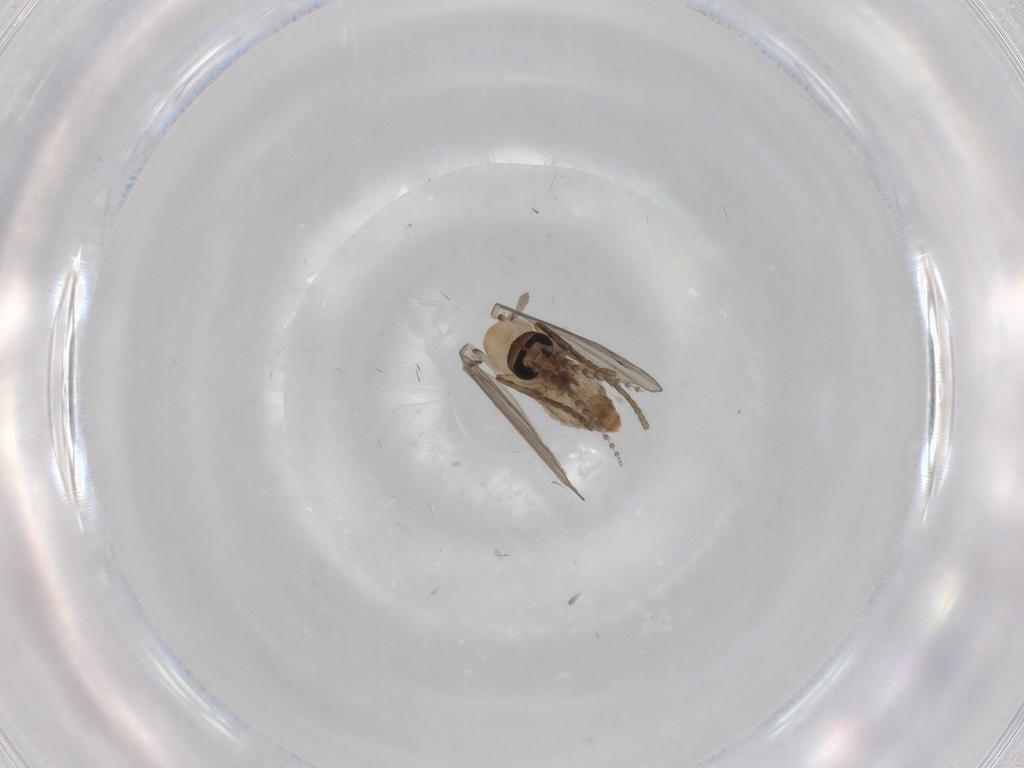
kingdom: Animalia
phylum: Arthropoda
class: Insecta
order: Diptera
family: Psychodidae
